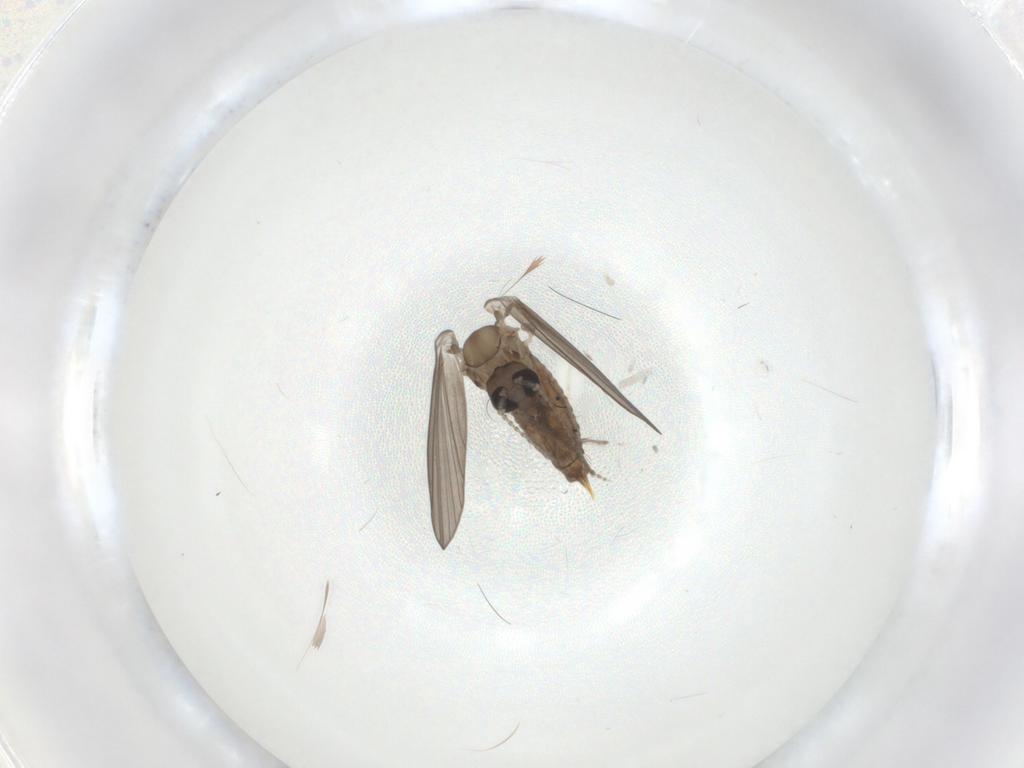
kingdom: Animalia
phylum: Arthropoda
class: Insecta
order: Diptera
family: Psychodidae
